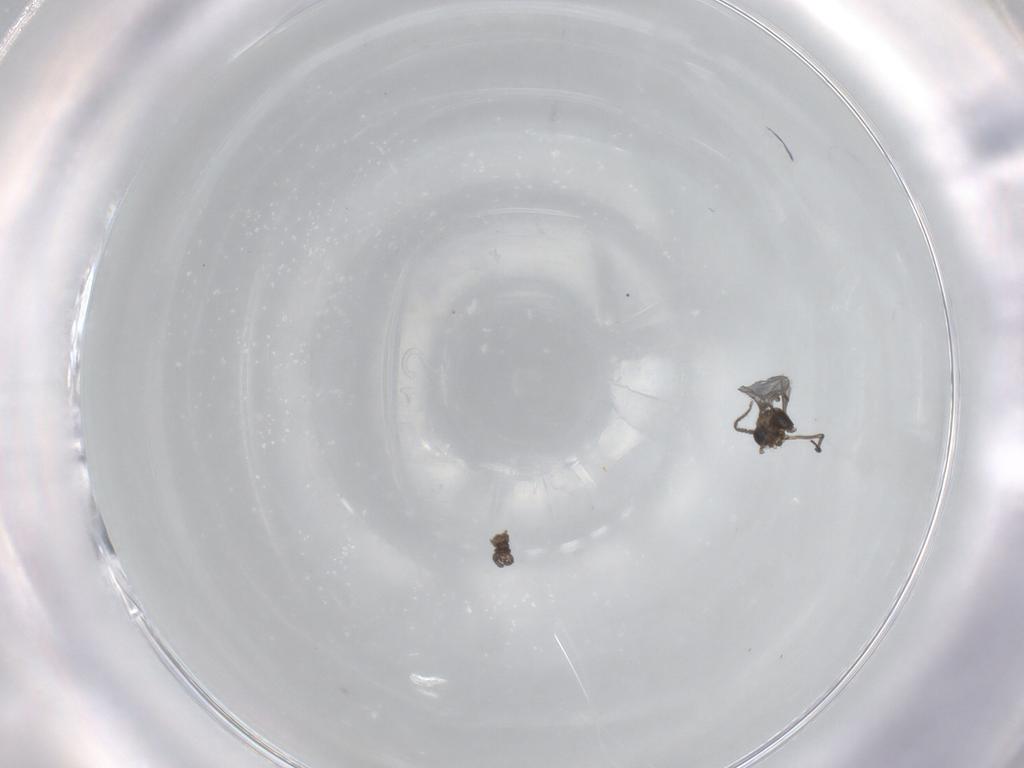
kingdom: Animalia
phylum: Arthropoda
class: Insecta
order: Diptera
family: Sciaridae
